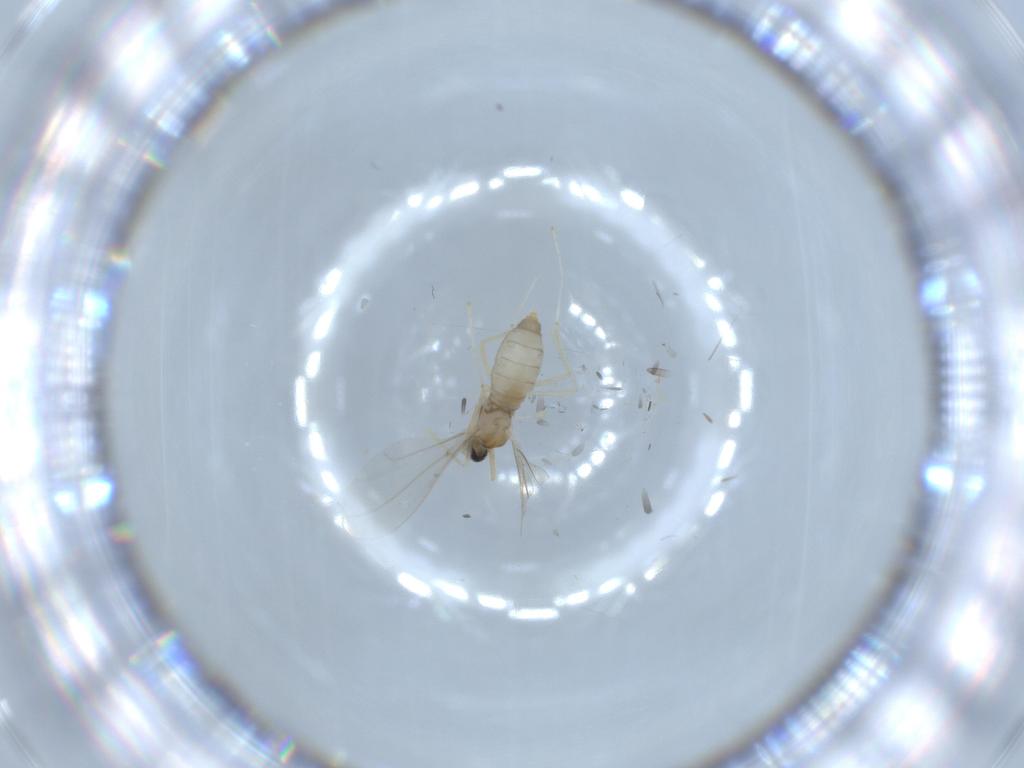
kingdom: Animalia
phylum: Arthropoda
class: Insecta
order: Diptera
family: Cecidomyiidae
